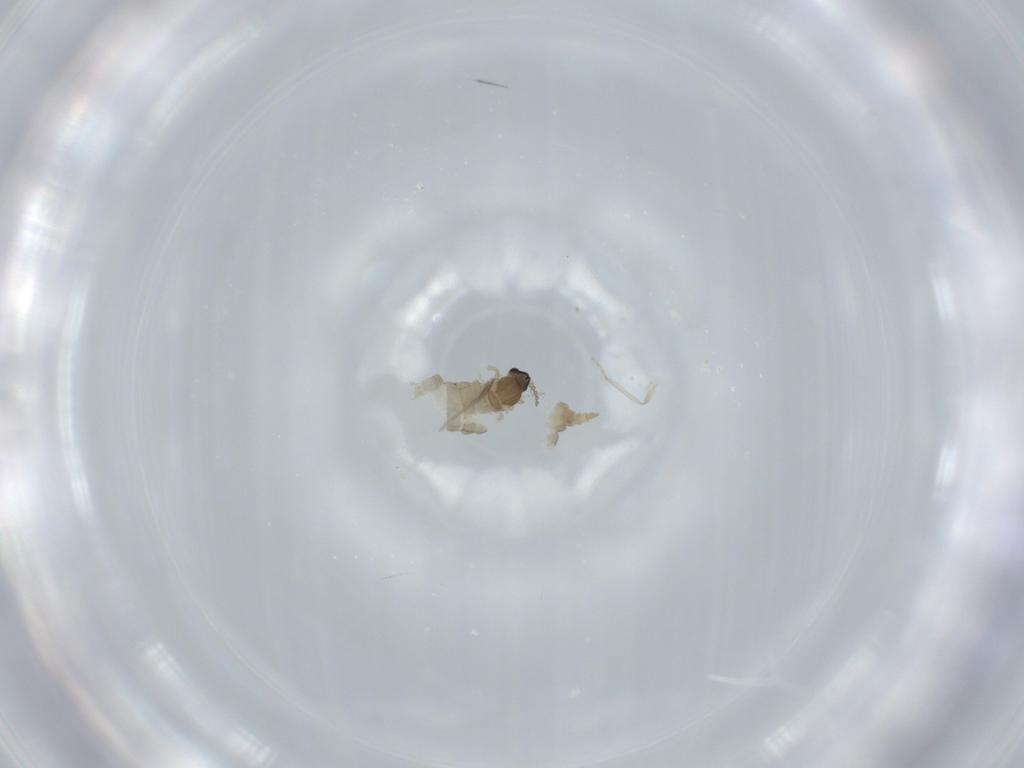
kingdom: Animalia
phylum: Arthropoda
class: Insecta
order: Diptera
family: Cecidomyiidae
